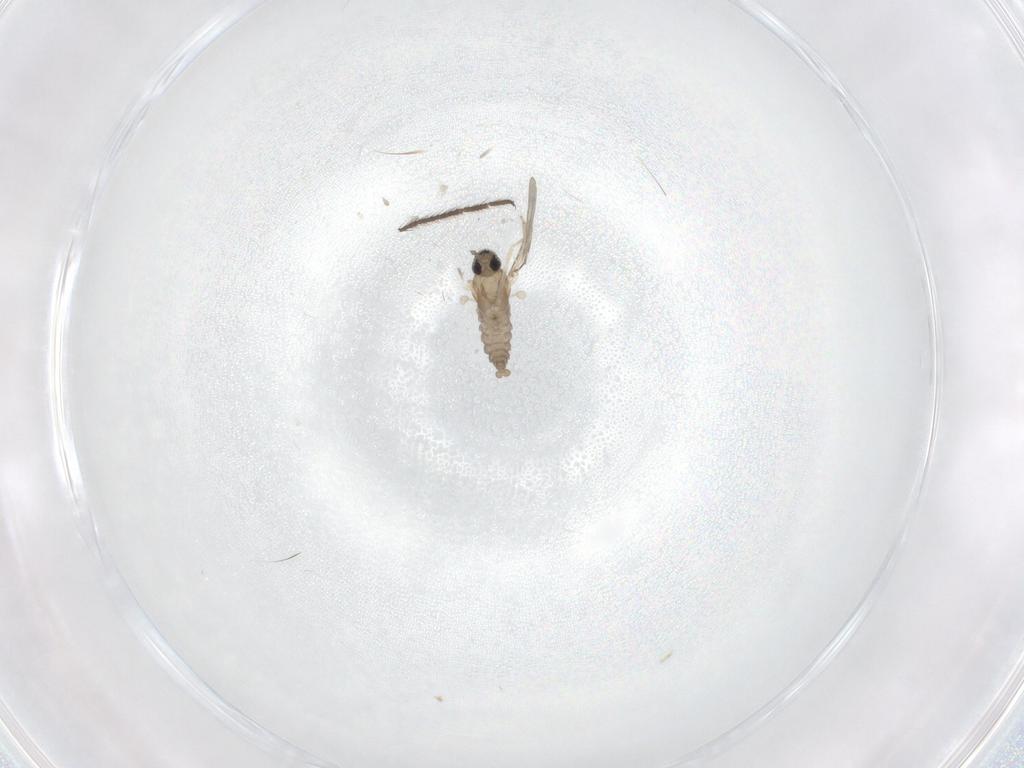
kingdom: Animalia
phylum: Arthropoda
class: Insecta
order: Diptera
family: Cecidomyiidae
